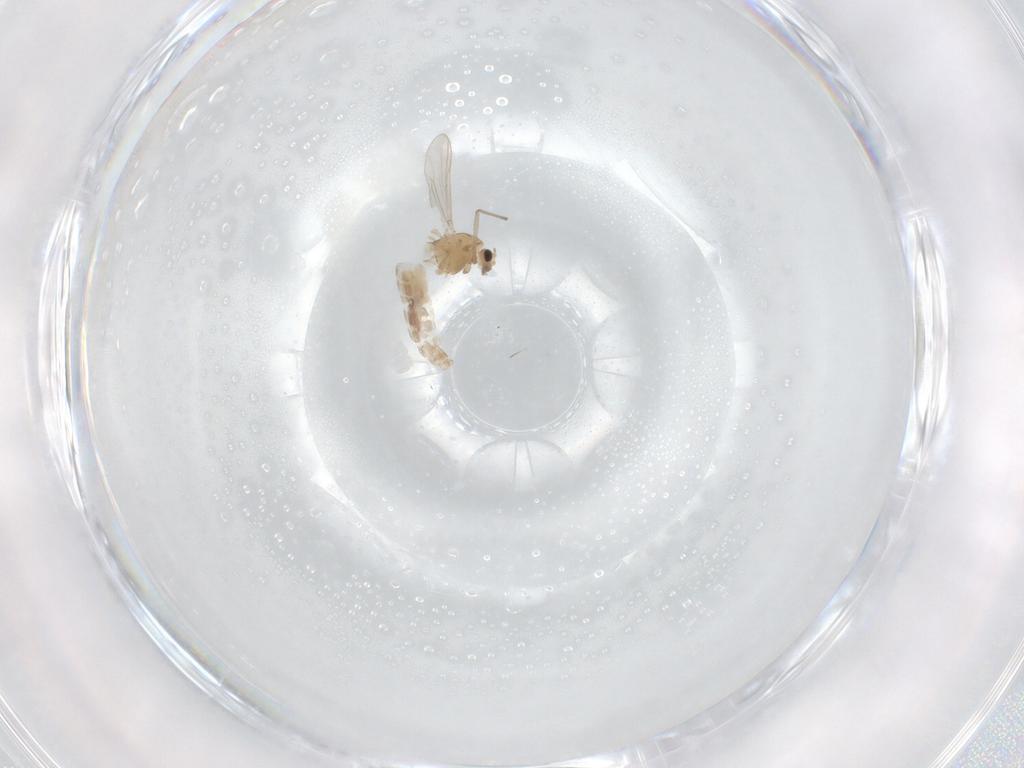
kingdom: Animalia
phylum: Arthropoda
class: Insecta
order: Diptera
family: Chironomidae
